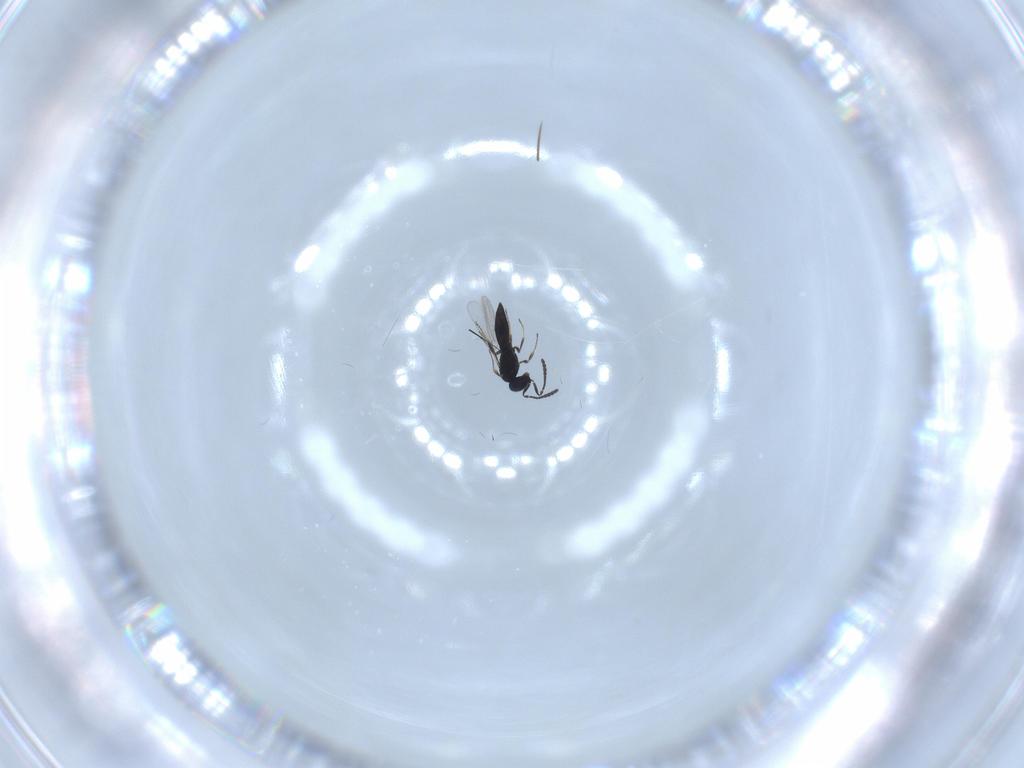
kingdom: Animalia
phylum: Arthropoda
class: Insecta
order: Hymenoptera
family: Scelionidae
